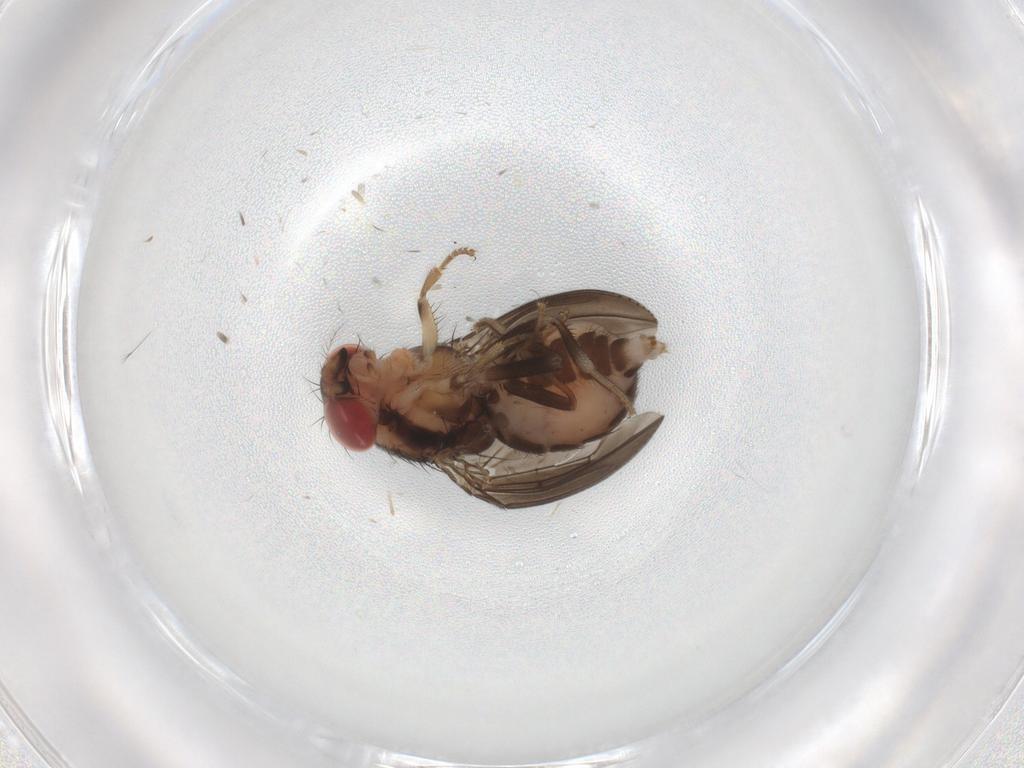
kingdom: Animalia
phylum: Arthropoda
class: Insecta
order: Diptera
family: Drosophilidae
